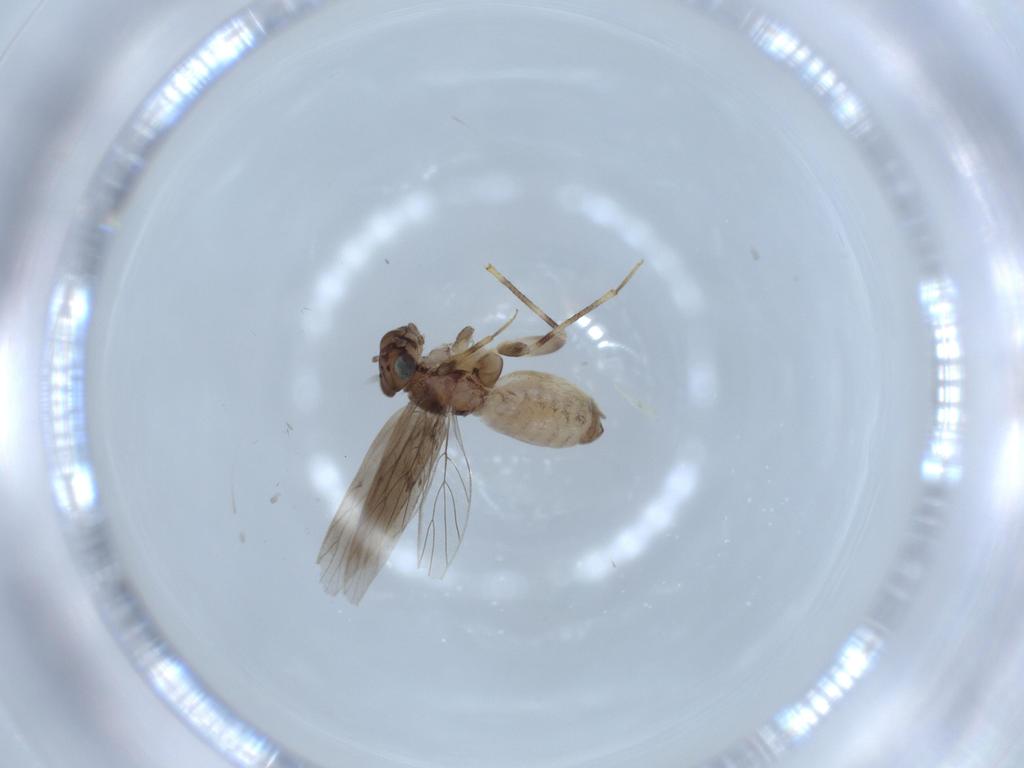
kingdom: Animalia
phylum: Arthropoda
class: Insecta
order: Psocodea
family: Lepidopsocidae
